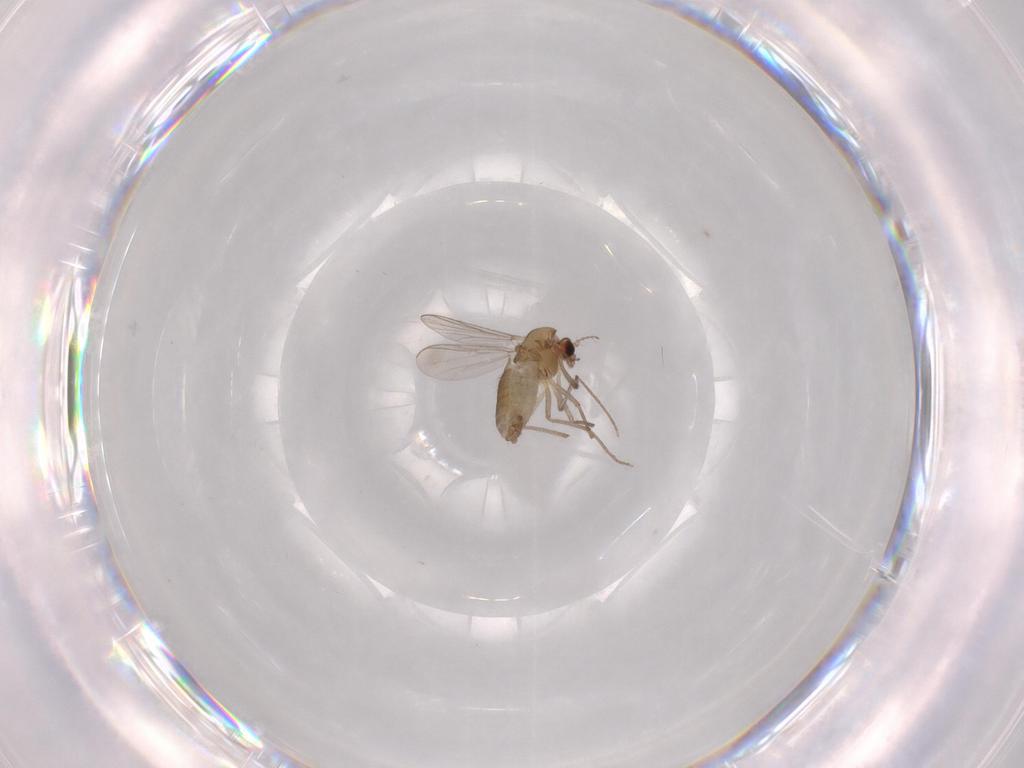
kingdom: Animalia
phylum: Arthropoda
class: Insecta
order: Diptera
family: Chironomidae
